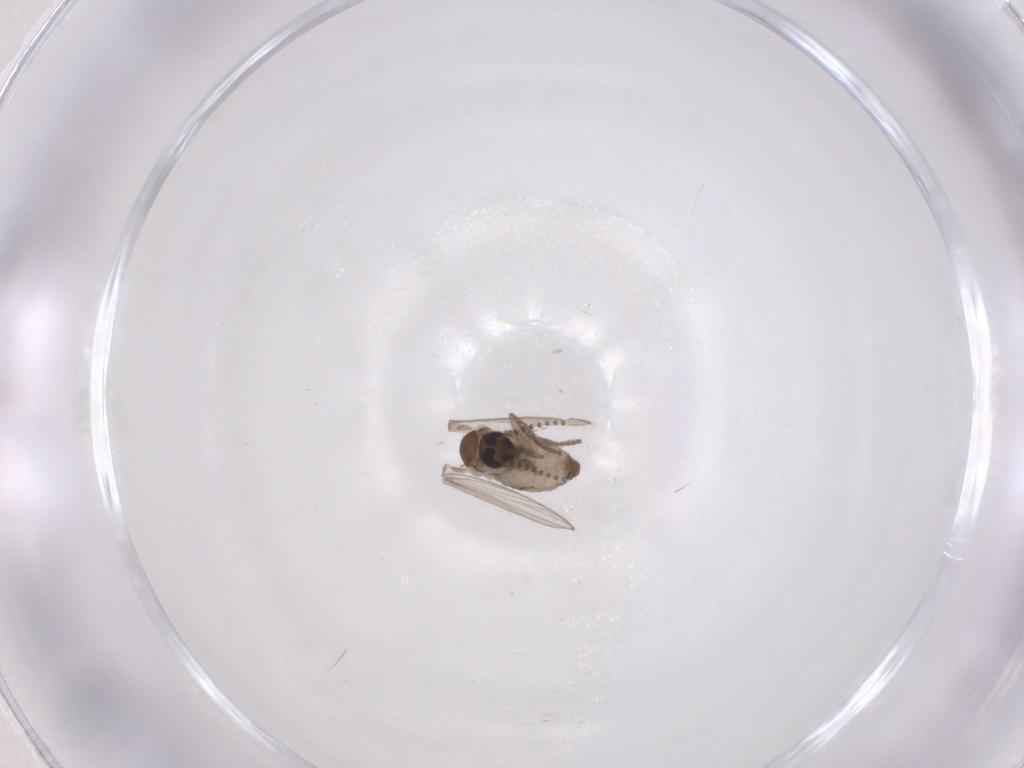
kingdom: Animalia
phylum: Arthropoda
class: Insecta
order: Diptera
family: Psychodidae
